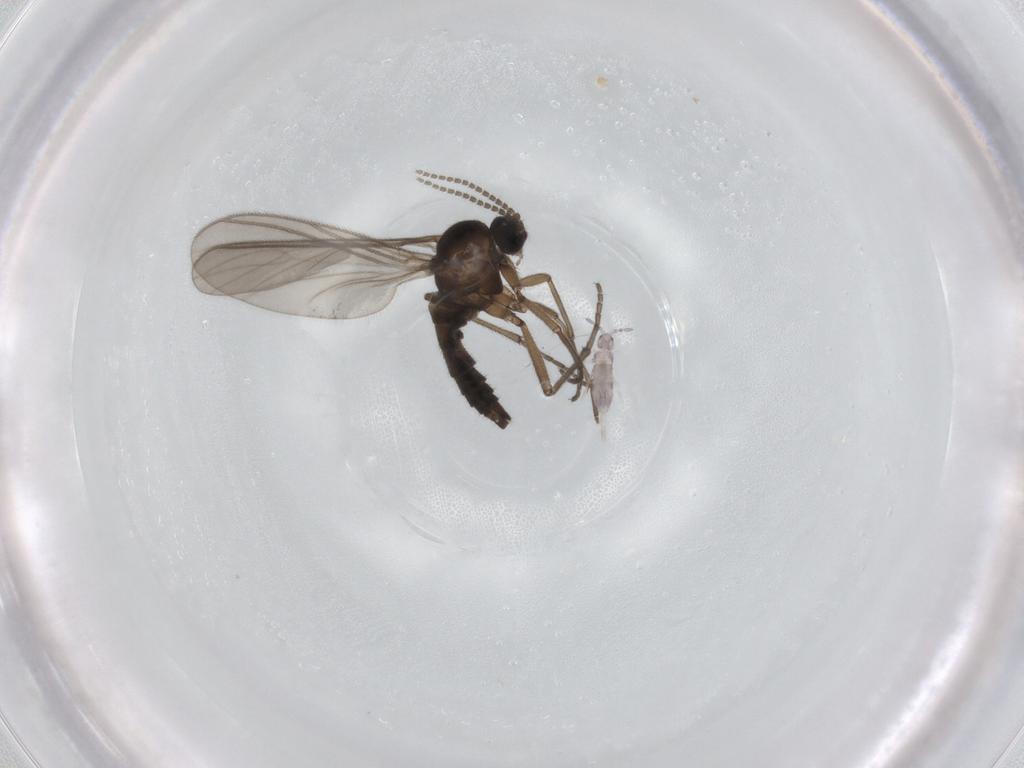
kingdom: Animalia
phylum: Arthropoda
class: Insecta
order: Diptera
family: Sciaridae
